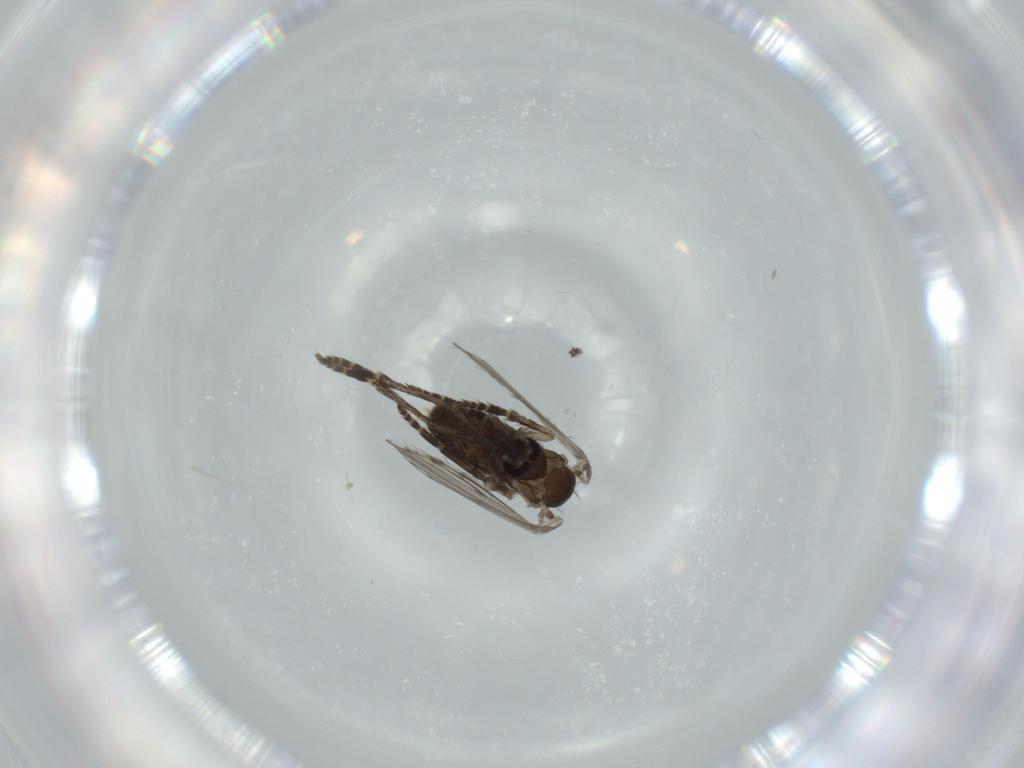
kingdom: Animalia
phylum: Arthropoda
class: Insecta
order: Diptera
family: Psychodidae
